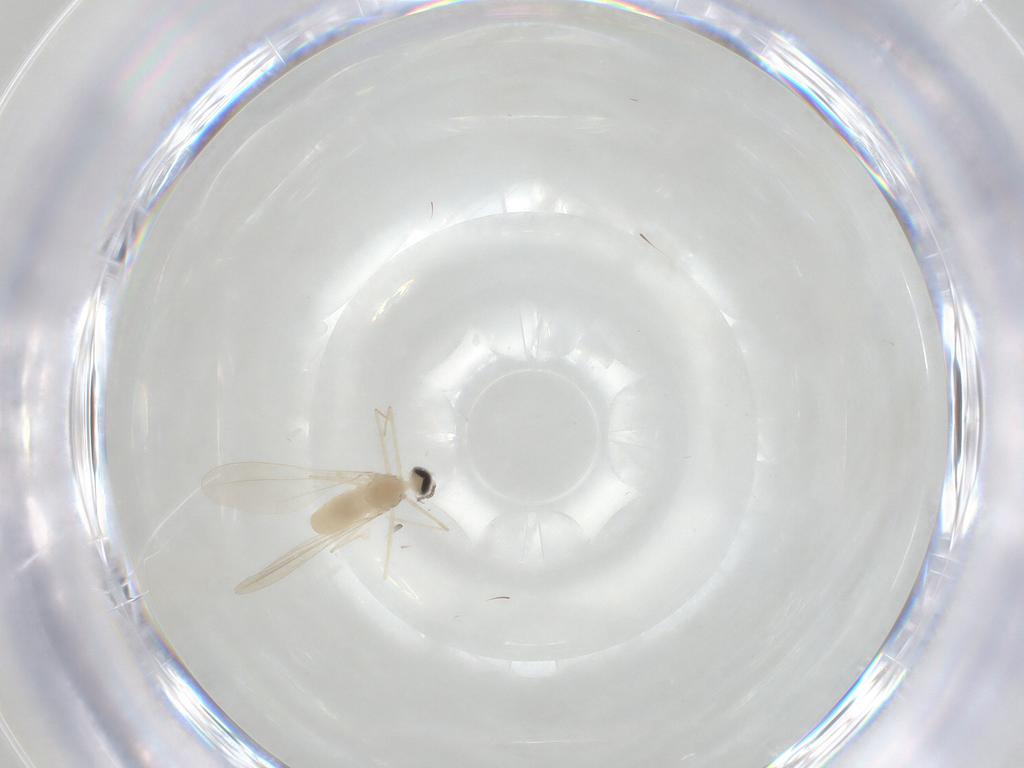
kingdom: Animalia
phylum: Arthropoda
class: Insecta
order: Diptera
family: Cecidomyiidae
